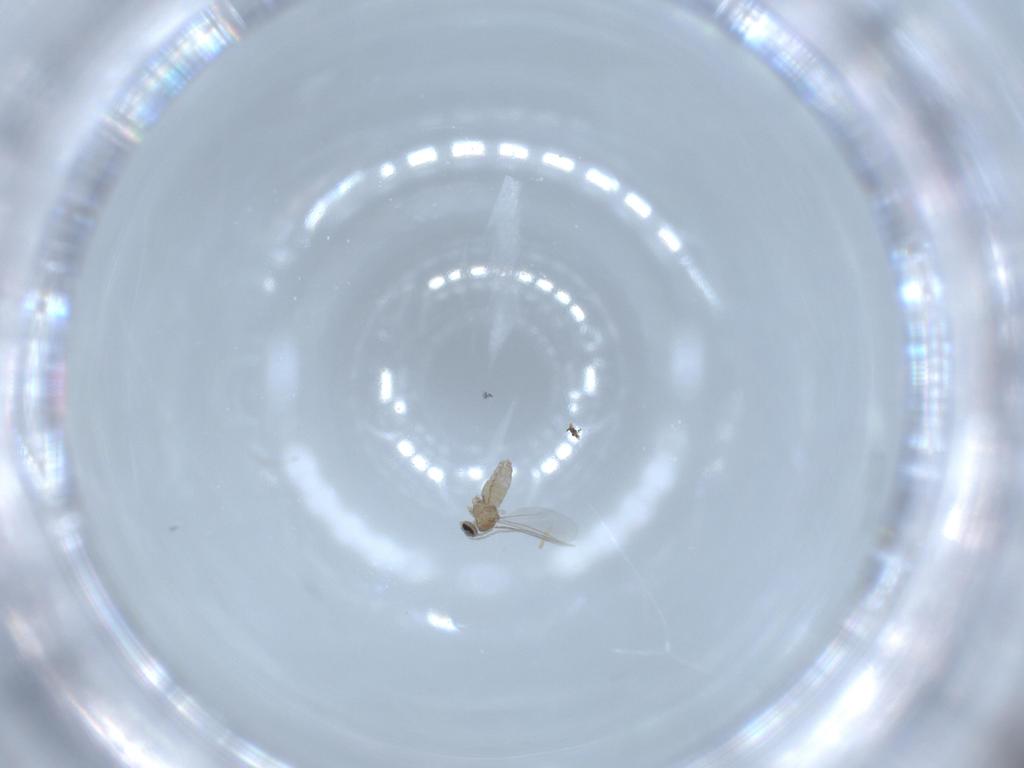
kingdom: Animalia
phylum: Arthropoda
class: Insecta
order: Diptera
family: Cecidomyiidae
